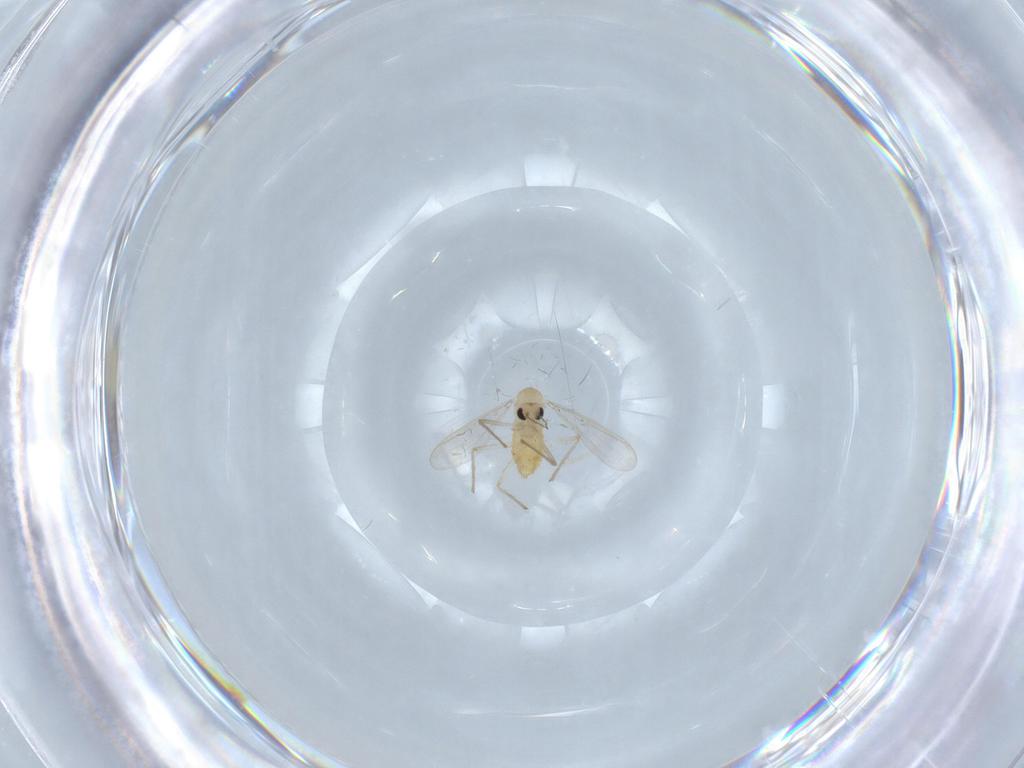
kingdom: Animalia
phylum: Arthropoda
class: Insecta
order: Diptera
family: Chironomidae
